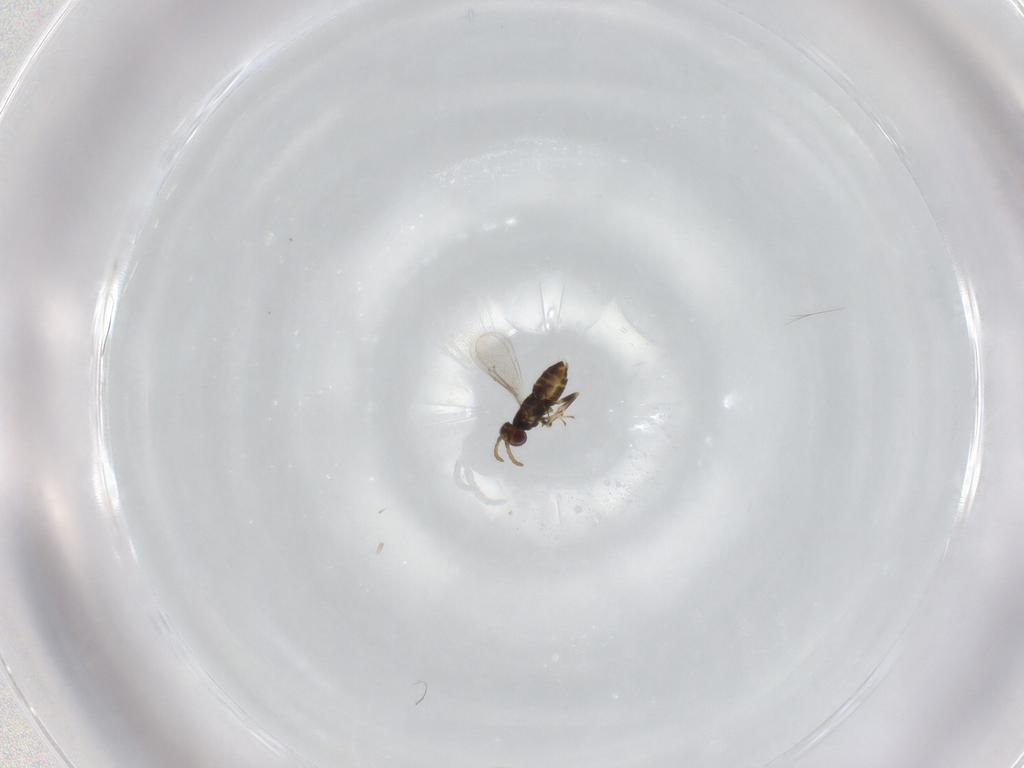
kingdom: Animalia
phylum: Arthropoda
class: Insecta
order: Hymenoptera
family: Aphelinidae
